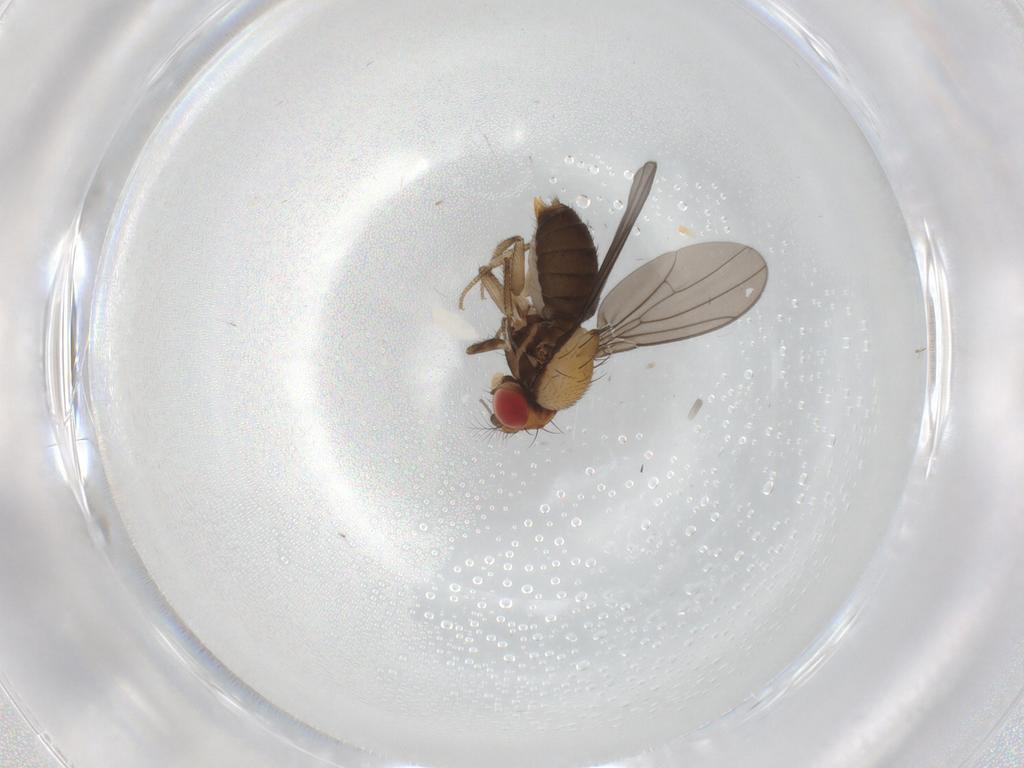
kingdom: Animalia
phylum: Arthropoda
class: Insecta
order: Diptera
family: Drosophilidae
